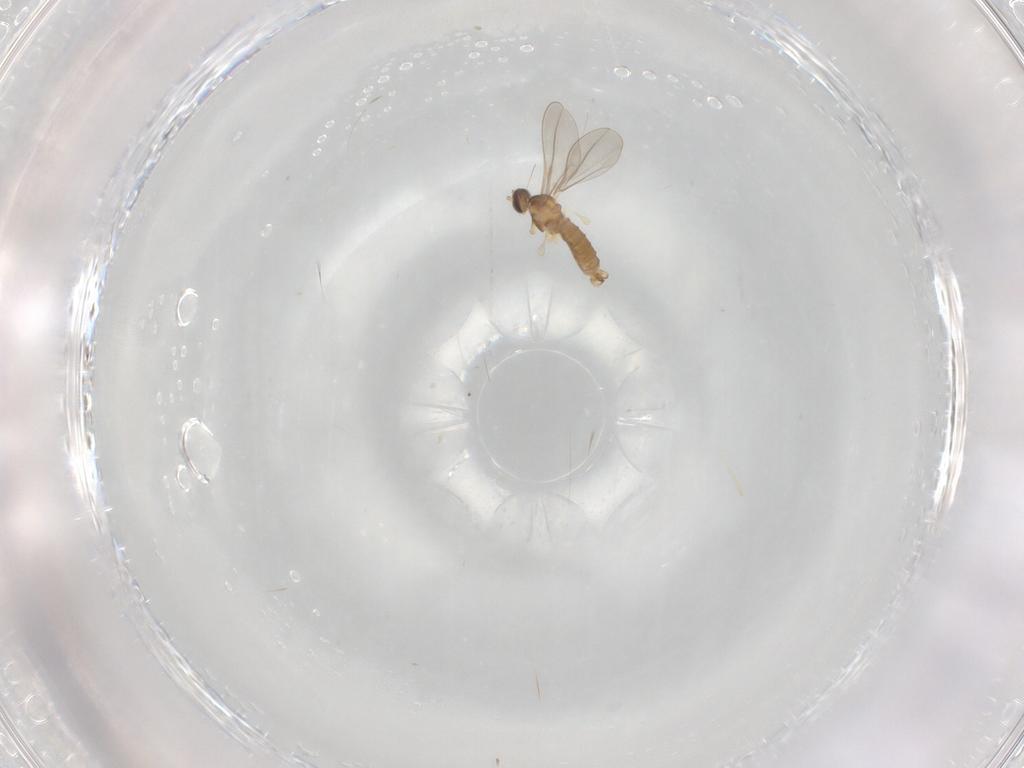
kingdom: Animalia
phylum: Arthropoda
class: Insecta
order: Diptera
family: Cecidomyiidae
